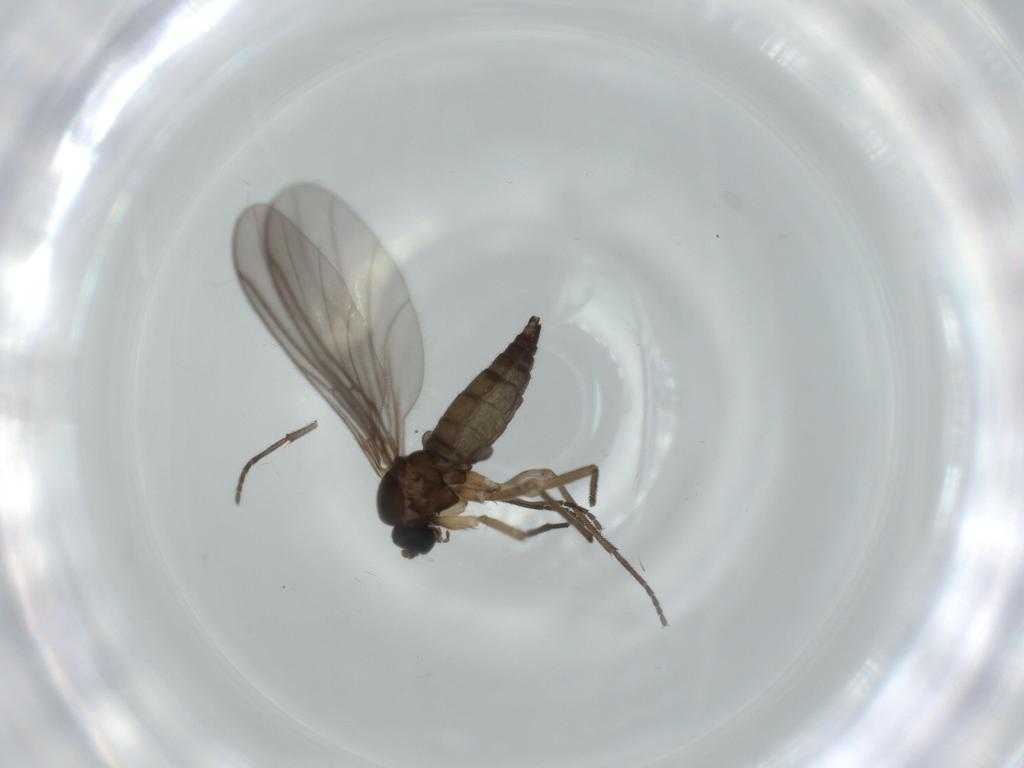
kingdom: Animalia
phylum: Arthropoda
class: Insecta
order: Diptera
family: Sciaridae
